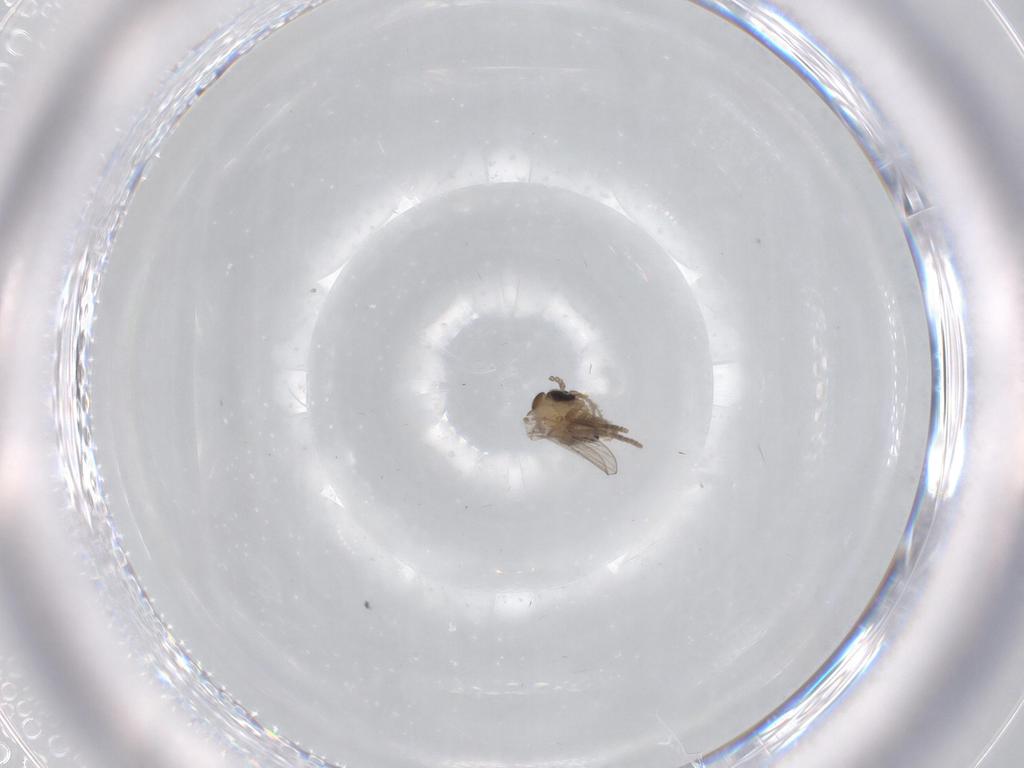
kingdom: Animalia
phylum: Arthropoda
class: Insecta
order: Diptera
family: Psychodidae
